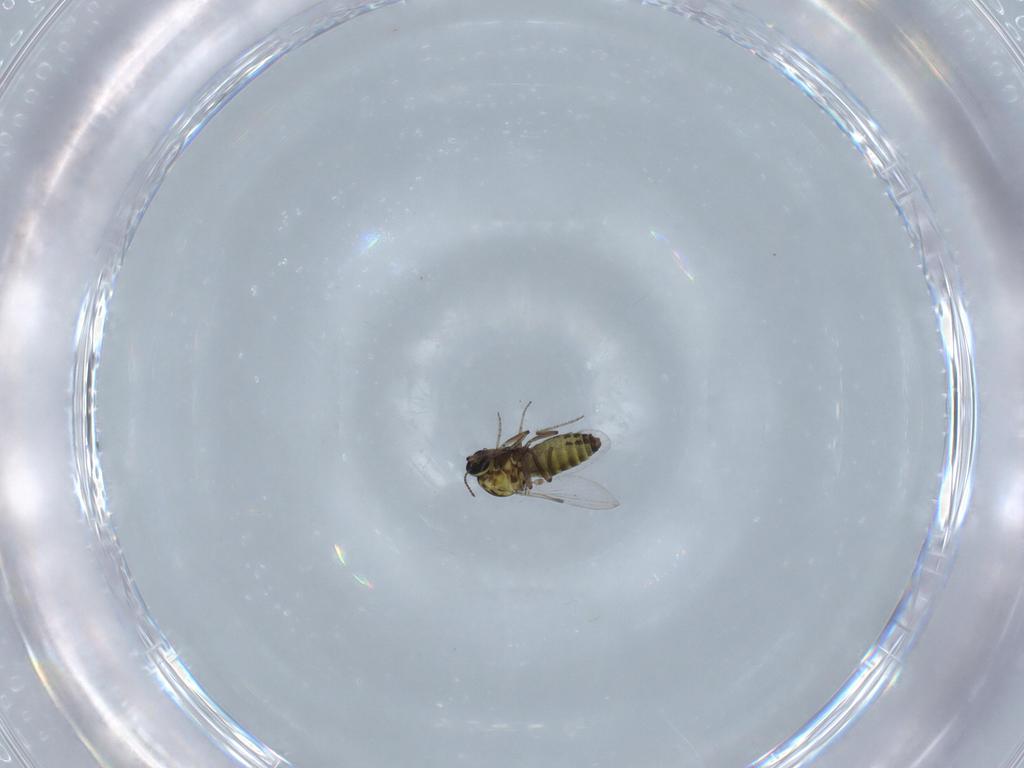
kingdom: Animalia
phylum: Arthropoda
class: Insecta
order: Diptera
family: Ceratopogonidae
